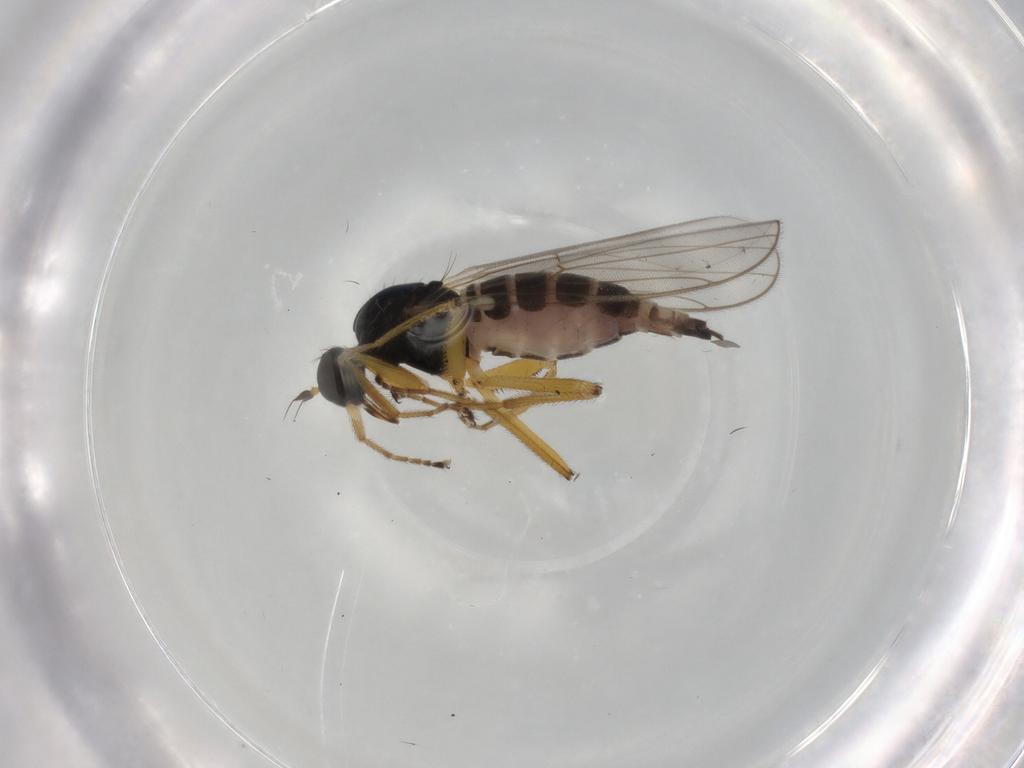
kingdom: Animalia
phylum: Arthropoda
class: Insecta
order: Diptera
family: Hybotidae
